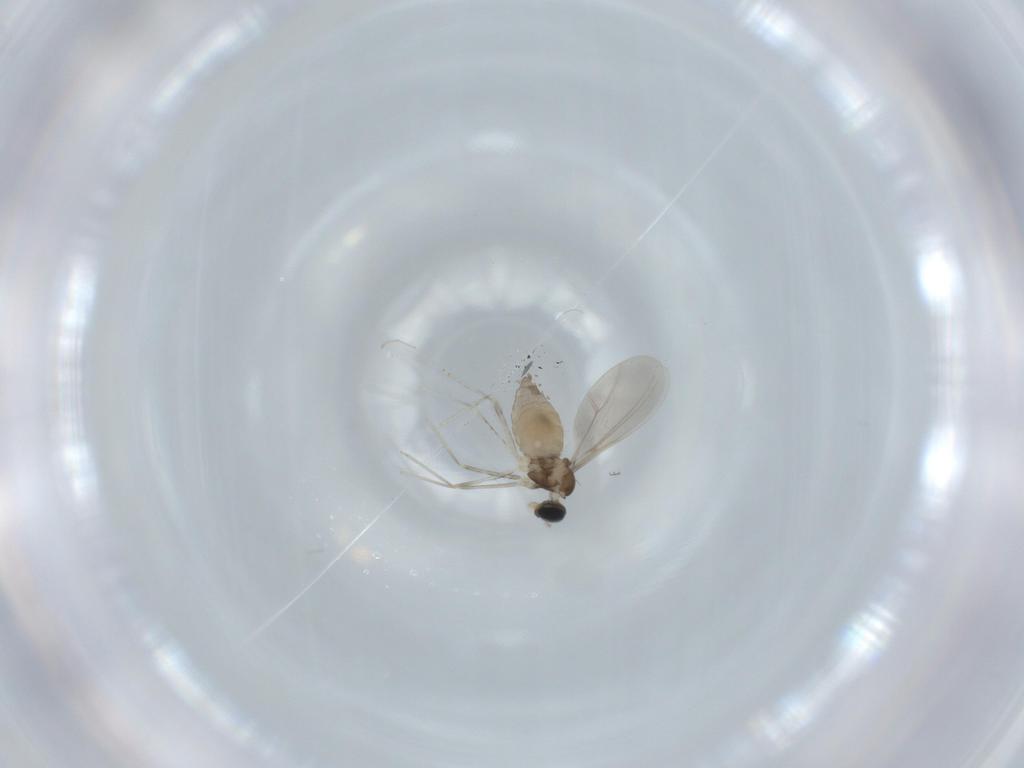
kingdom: Animalia
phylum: Arthropoda
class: Insecta
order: Diptera
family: Cecidomyiidae
